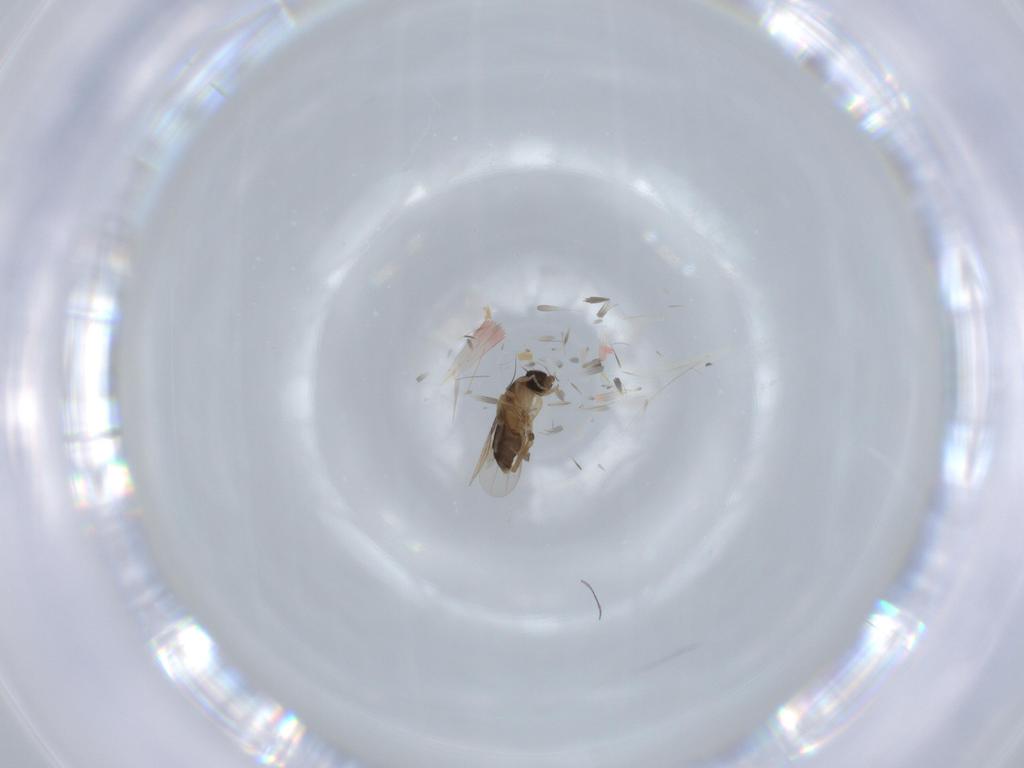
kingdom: Animalia
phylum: Arthropoda
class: Insecta
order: Diptera
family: Phoridae
